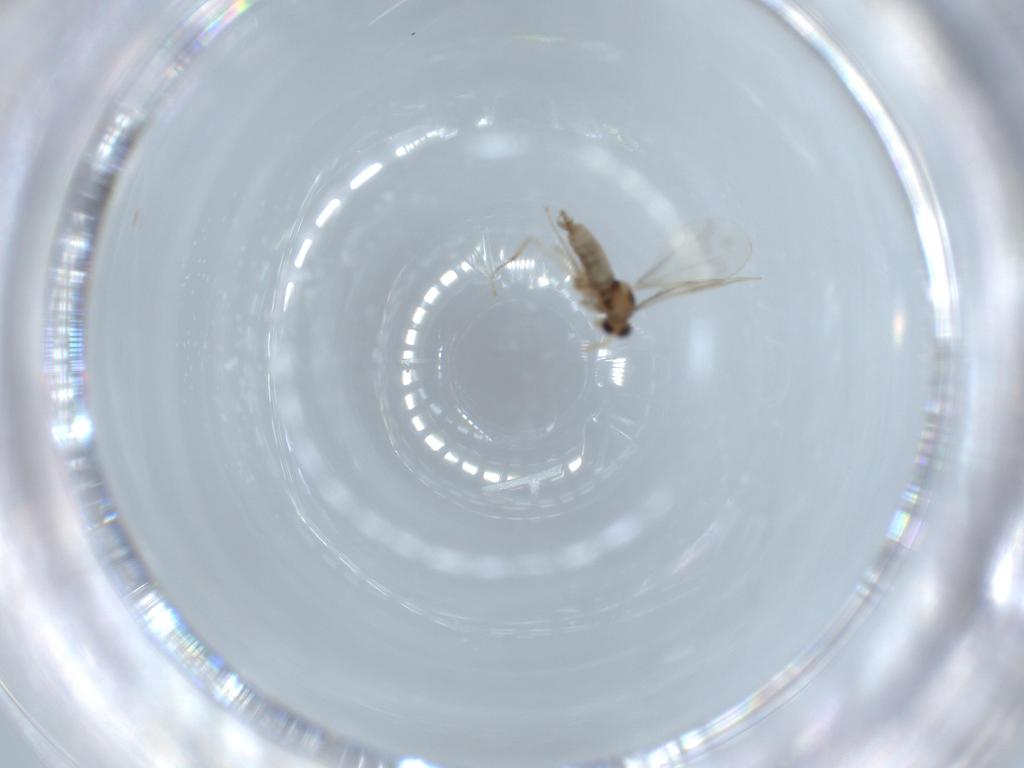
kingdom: Animalia
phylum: Arthropoda
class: Insecta
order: Diptera
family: Cecidomyiidae
